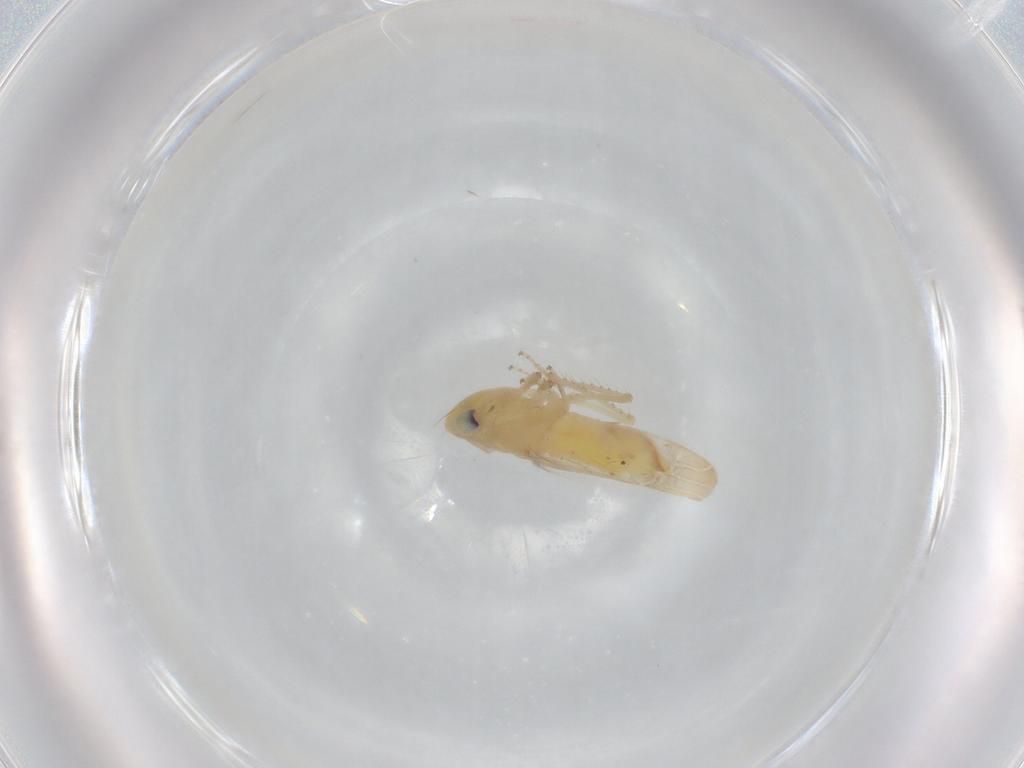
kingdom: Animalia
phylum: Arthropoda
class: Insecta
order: Hemiptera
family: Cicadellidae
